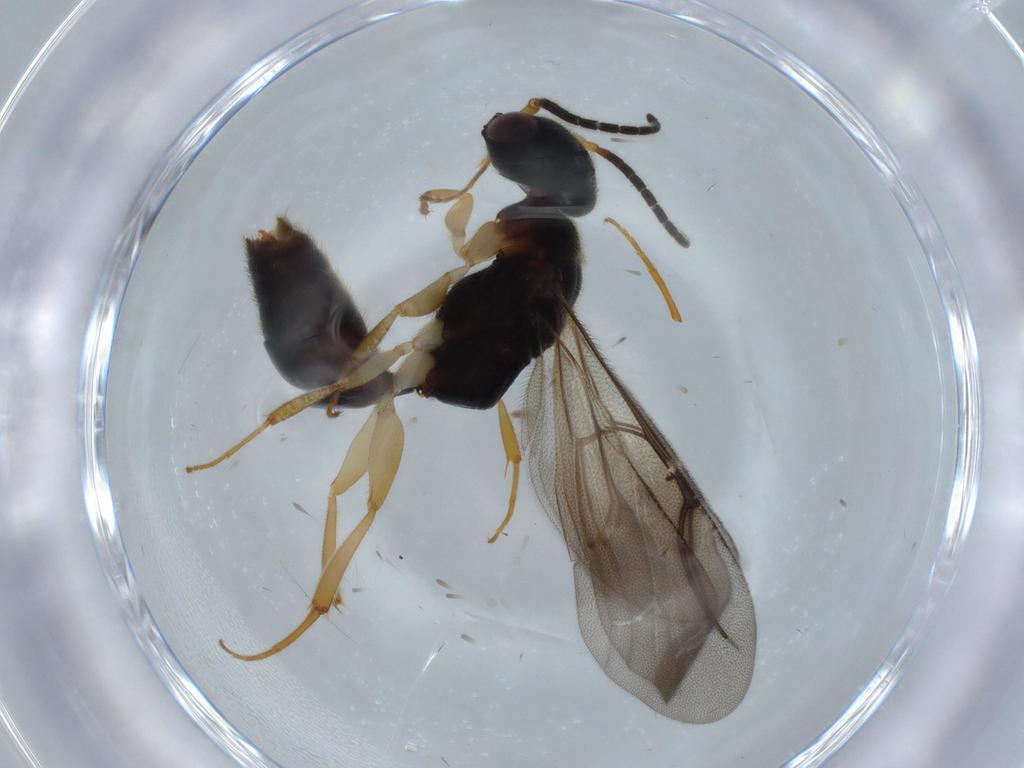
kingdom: Animalia
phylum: Arthropoda
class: Insecta
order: Hymenoptera
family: Bethylidae
